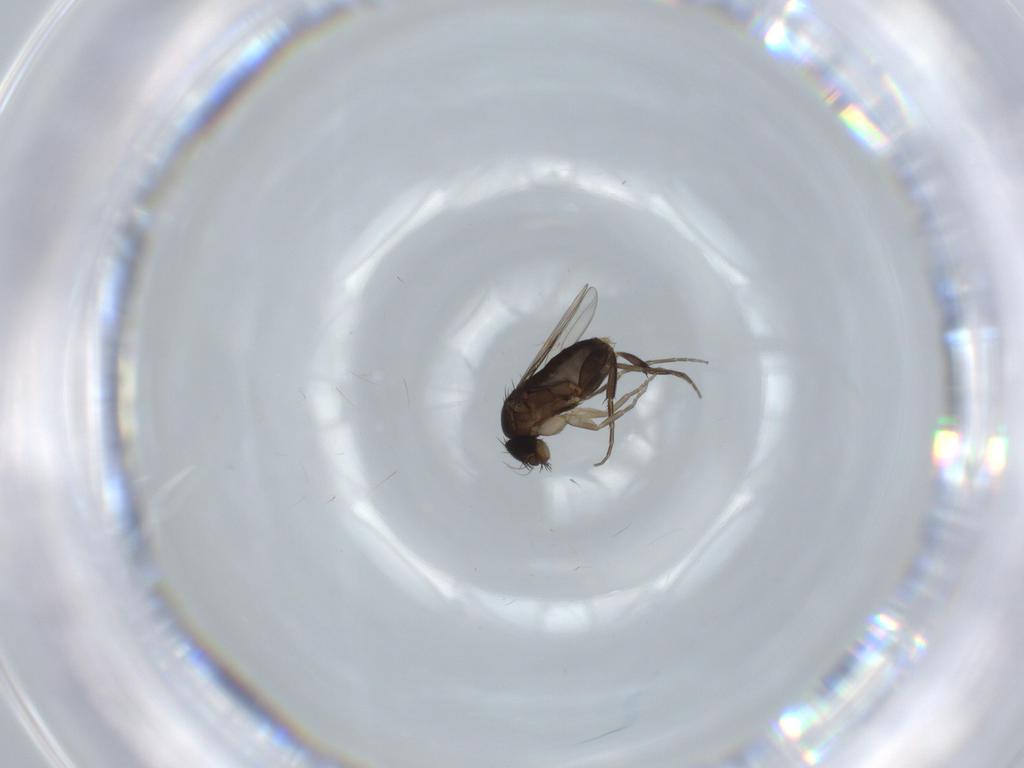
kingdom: Animalia
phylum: Arthropoda
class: Insecta
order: Diptera
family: Phoridae
